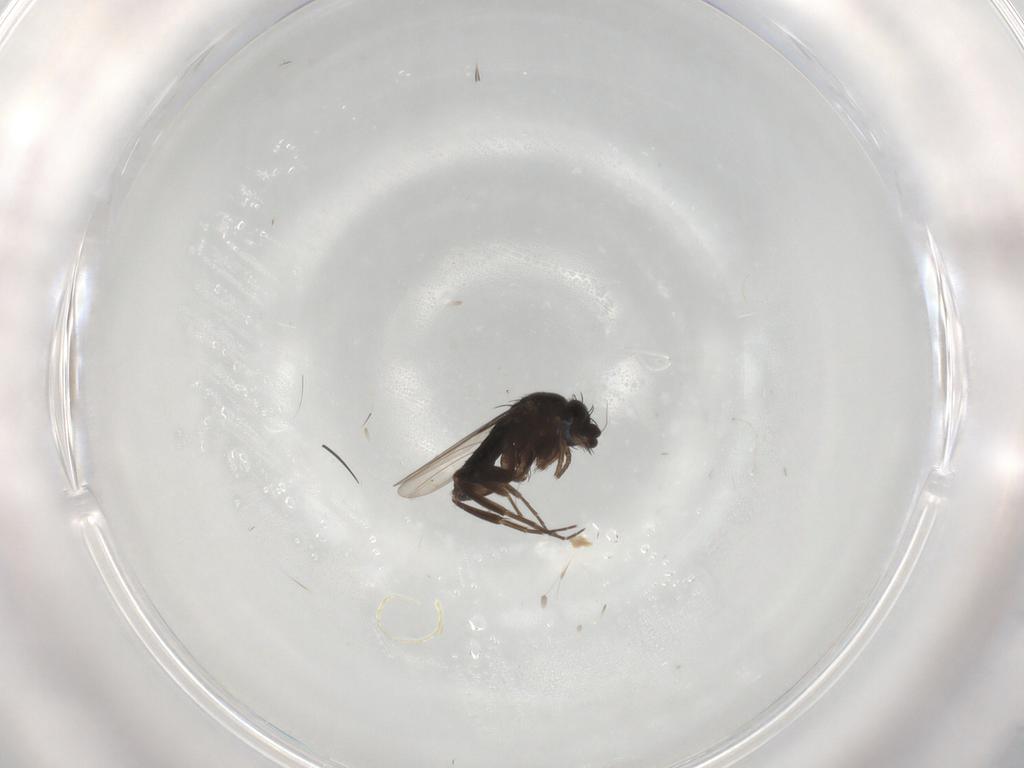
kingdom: Animalia
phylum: Arthropoda
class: Insecta
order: Diptera
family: Phoridae
